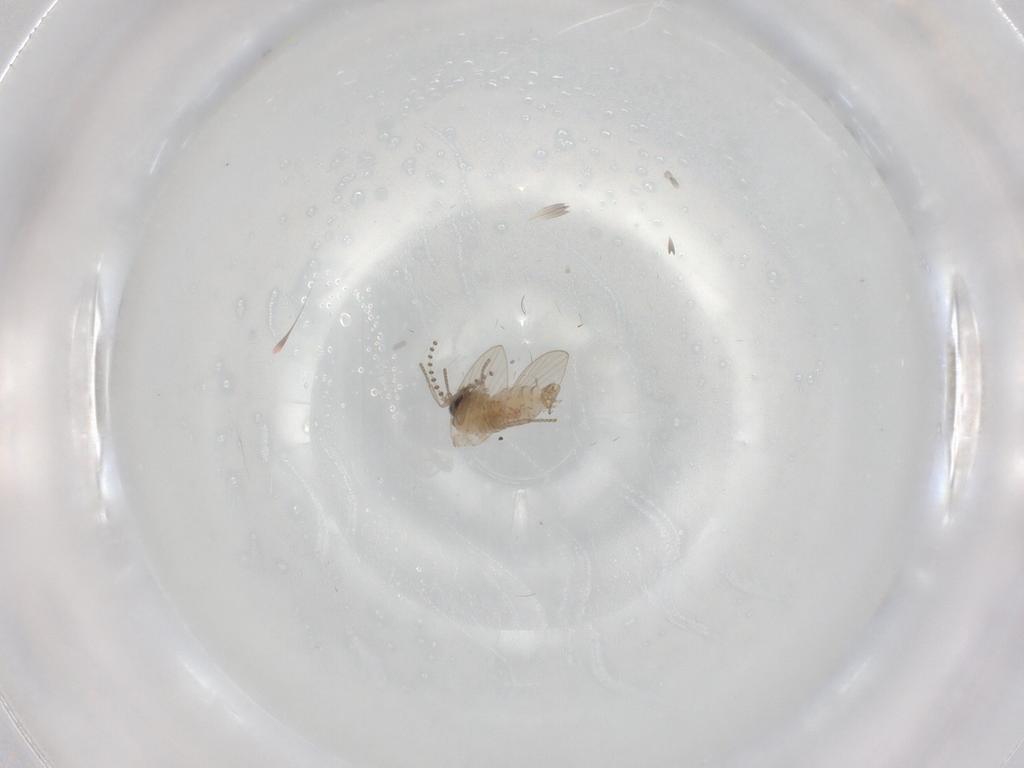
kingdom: Animalia
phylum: Arthropoda
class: Insecta
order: Diptera
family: Psychodidae
